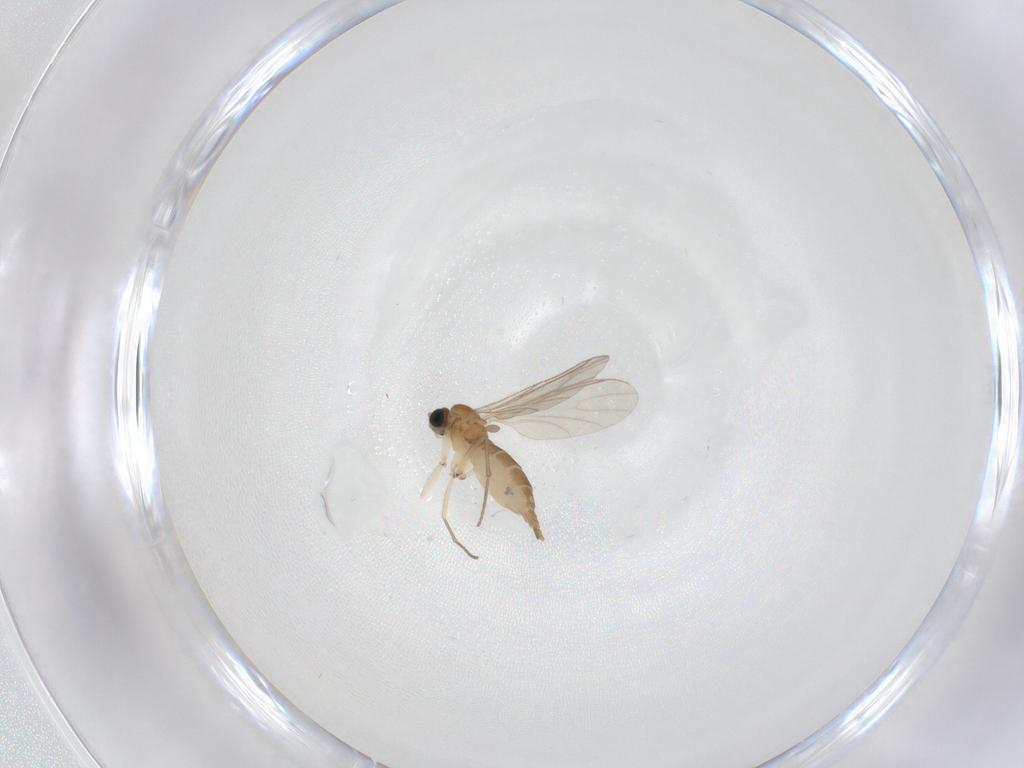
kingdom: Animalia
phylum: Arthropoda
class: Insecta
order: Diptera
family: Sciaridae
